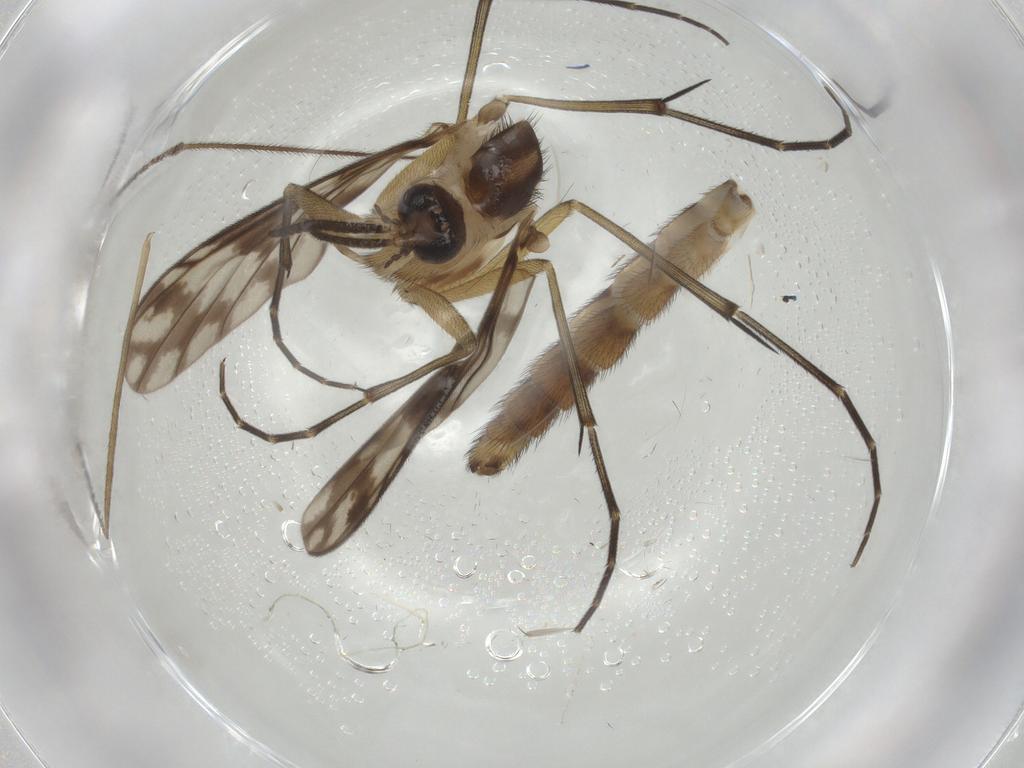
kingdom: Animalia
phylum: Arthropoda
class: Insecta
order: Diptera
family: Keroplatidae
